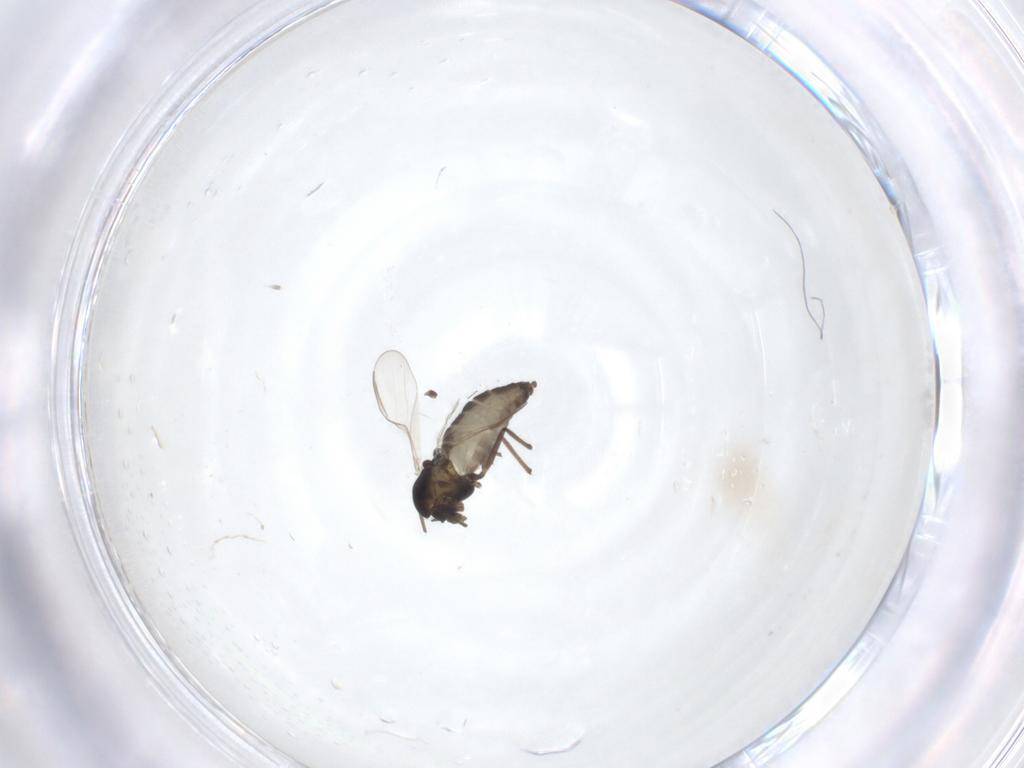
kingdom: Animalia
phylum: Arthropoda
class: Insecta
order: Diptera
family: Chironomidae
